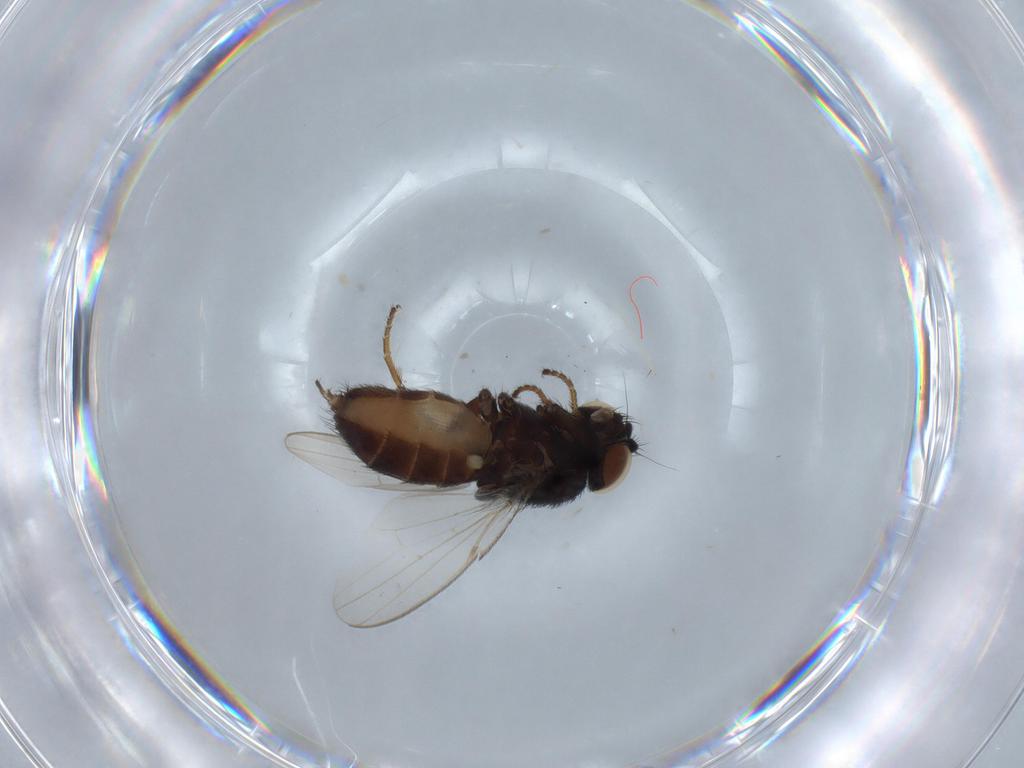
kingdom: Animalia
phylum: Arthropoda
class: Insecta
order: Diptera
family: Milichiidae
